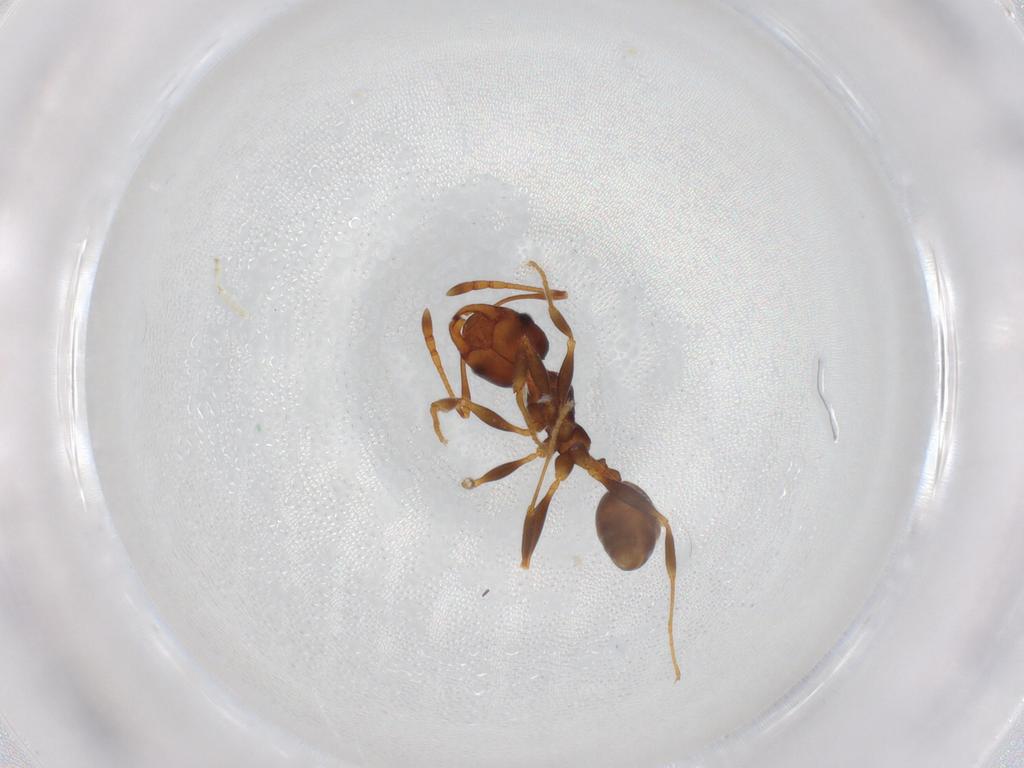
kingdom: Animalia
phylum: Arthropoda
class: Insecta
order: Hymenoptera
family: Formicidae
